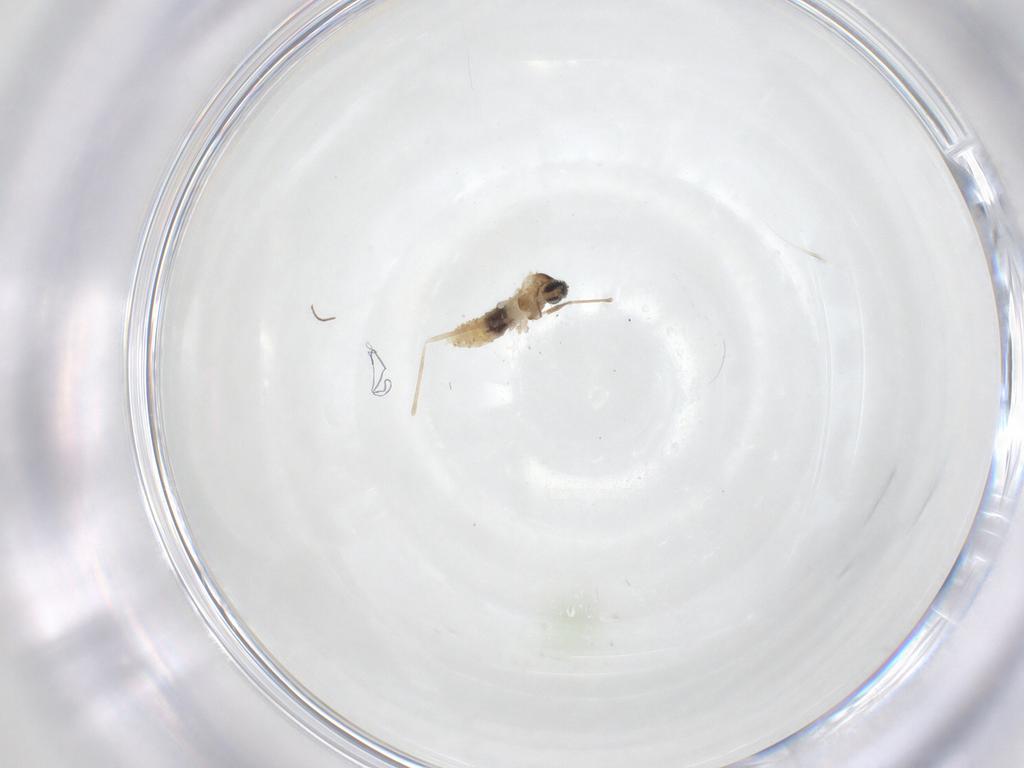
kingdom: Animalia
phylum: Arthropoda
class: Insecta
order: Diptera
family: Cecidomyiidae
